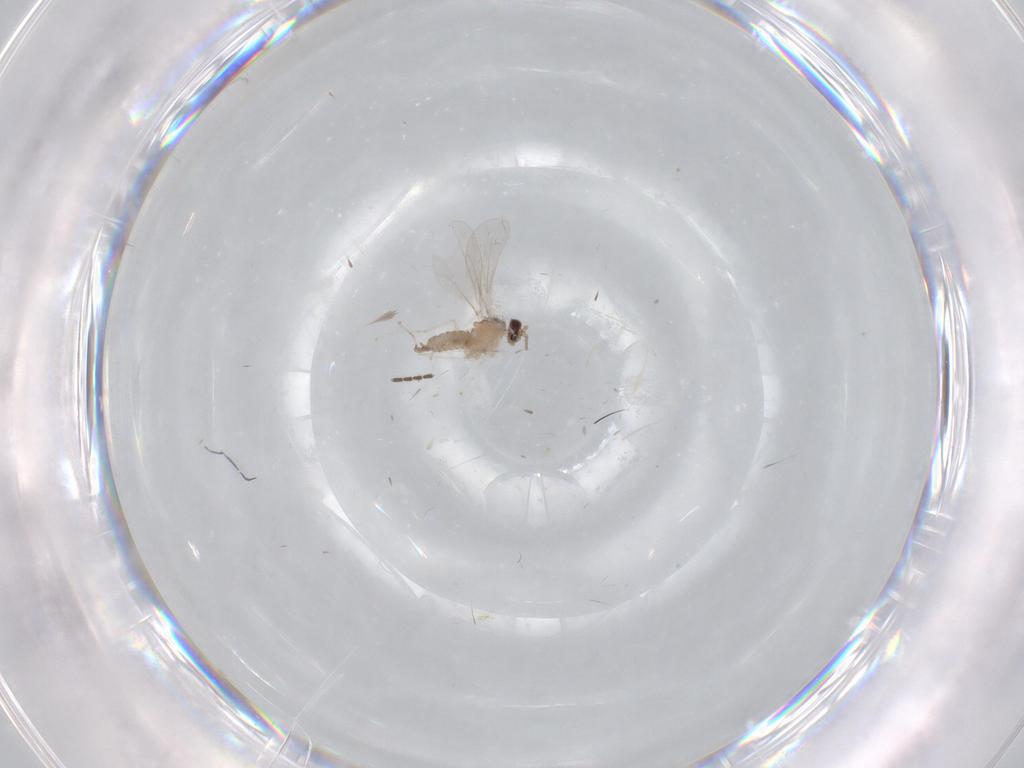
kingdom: Animalia
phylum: Arthropoda
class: Insecta
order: Diptera
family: Cecidomyiidae
